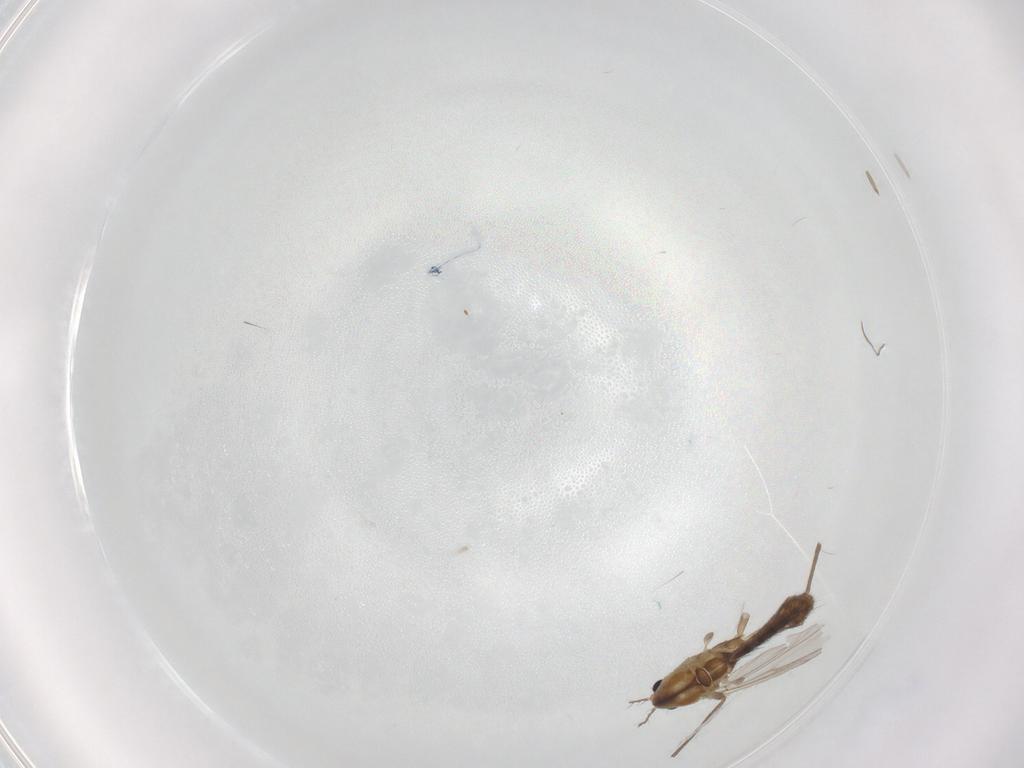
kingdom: Animalia
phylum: Arthropoda
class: Insecta
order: Diptera
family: Chironomidae
